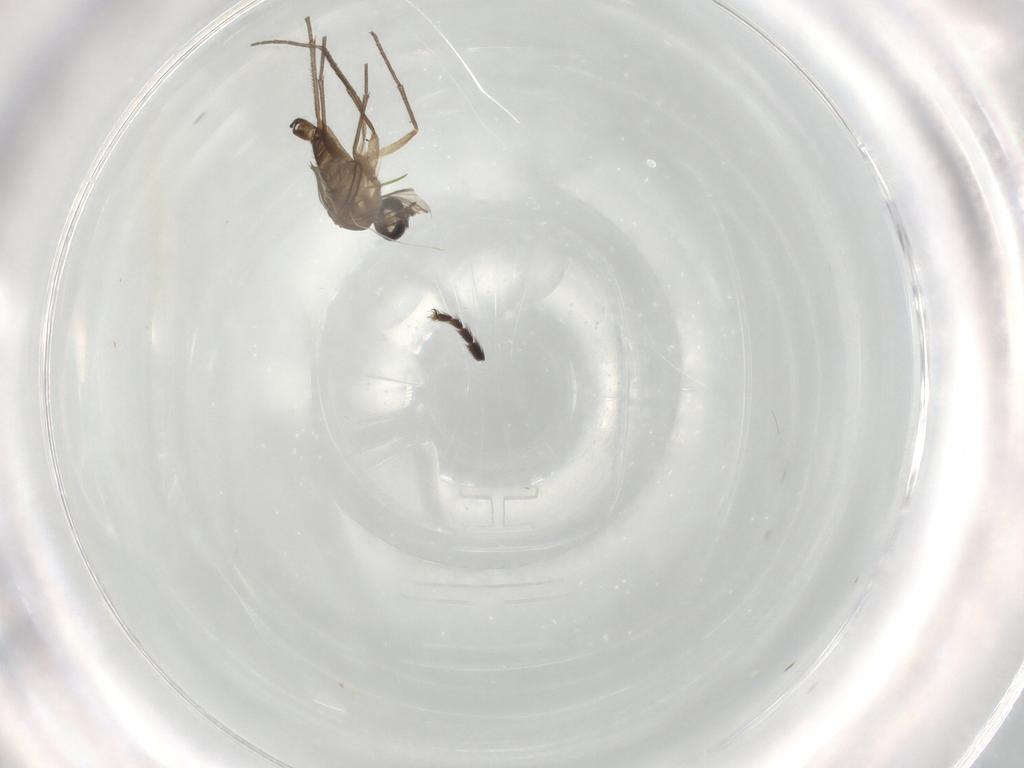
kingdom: Animalia
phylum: Arthropoda
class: Insecta
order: Diptera
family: Sciaridae
